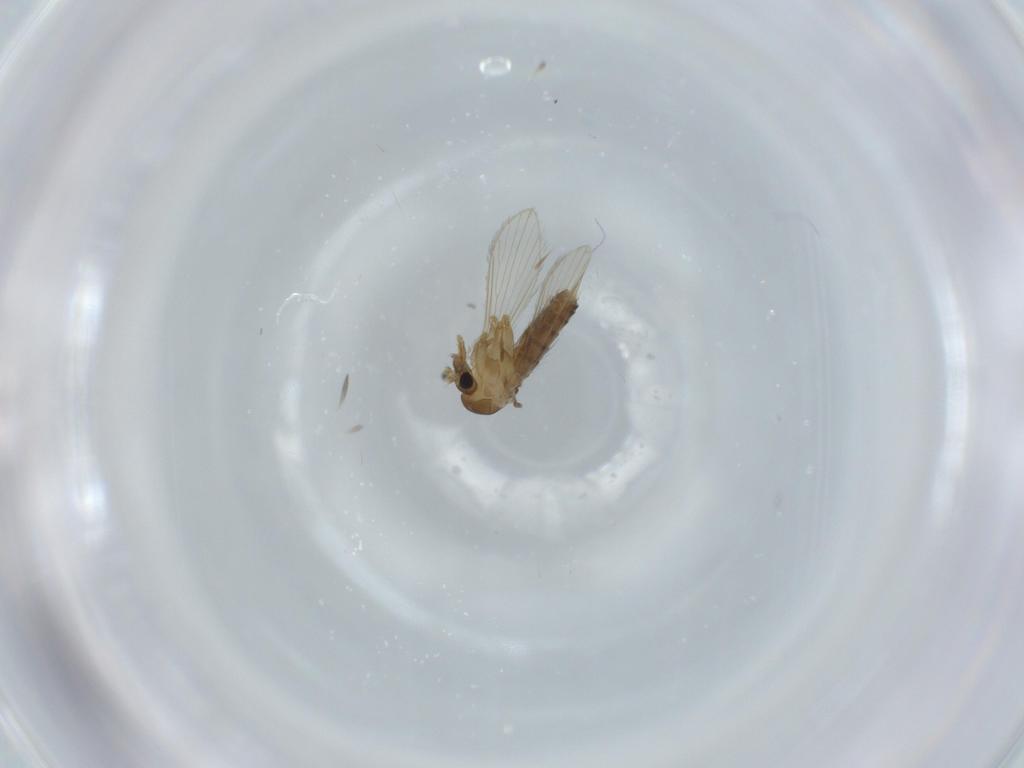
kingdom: Animalia
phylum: Arthropoda
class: Insecta
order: Diptera
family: Psychodidae
